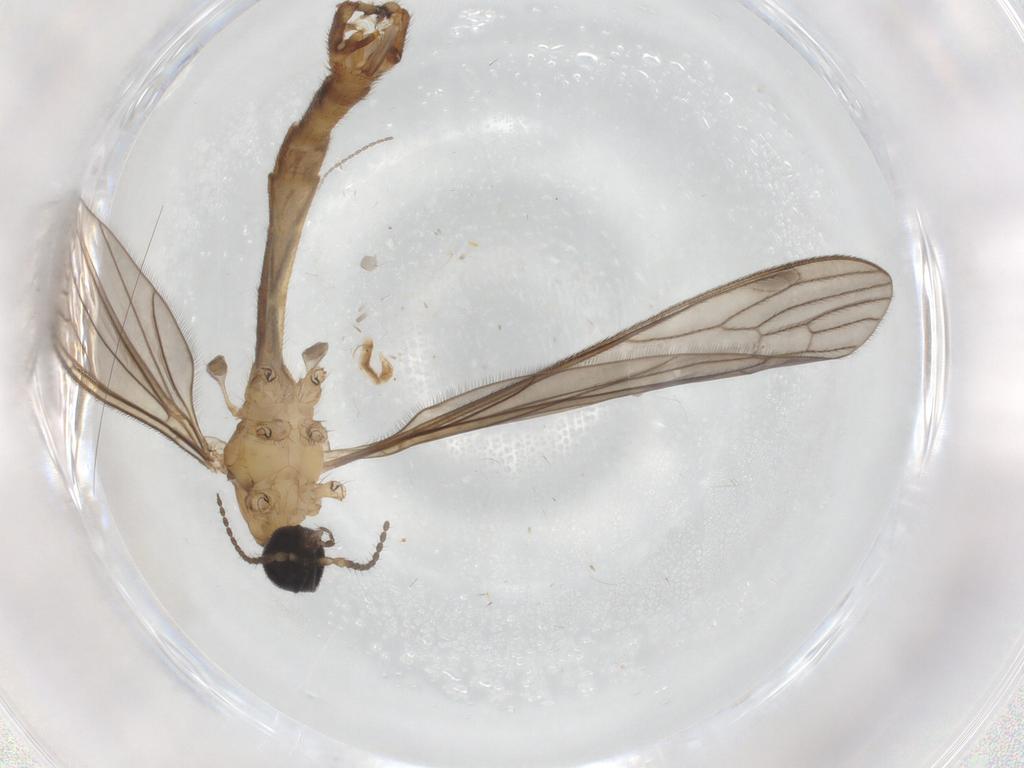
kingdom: Animalia
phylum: Arthropoda
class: Insecta
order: Diptera
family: Limoniidae
